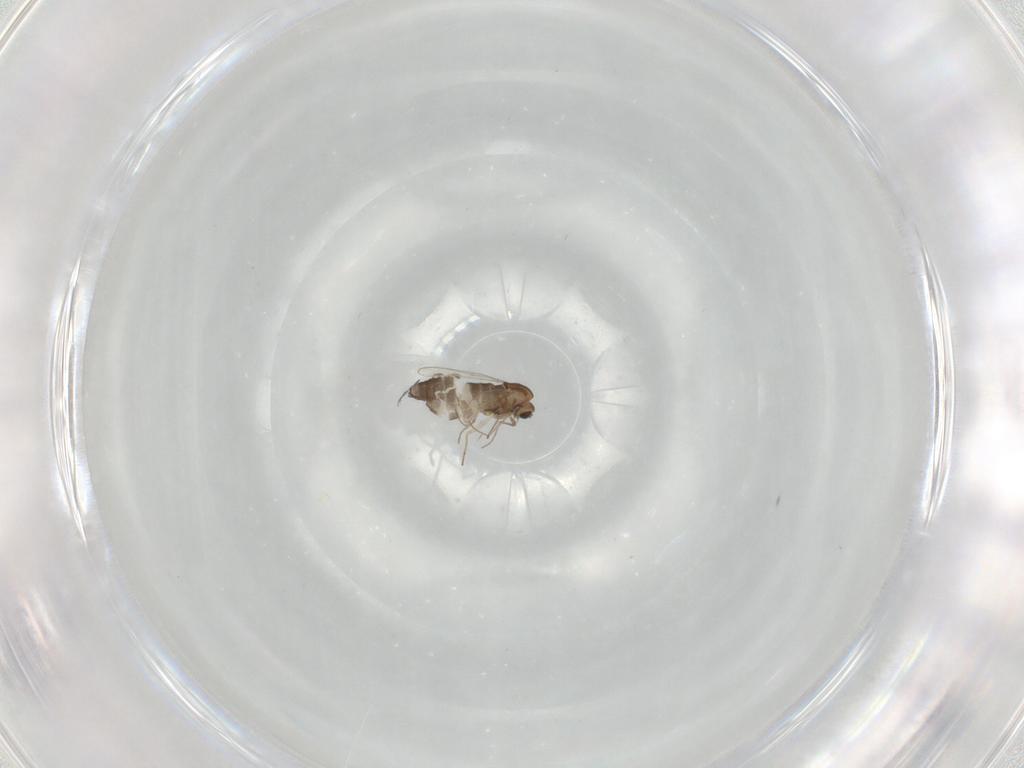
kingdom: Animalia
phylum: Arthropoda
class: Insecta
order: Diptera
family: Chironomidae
